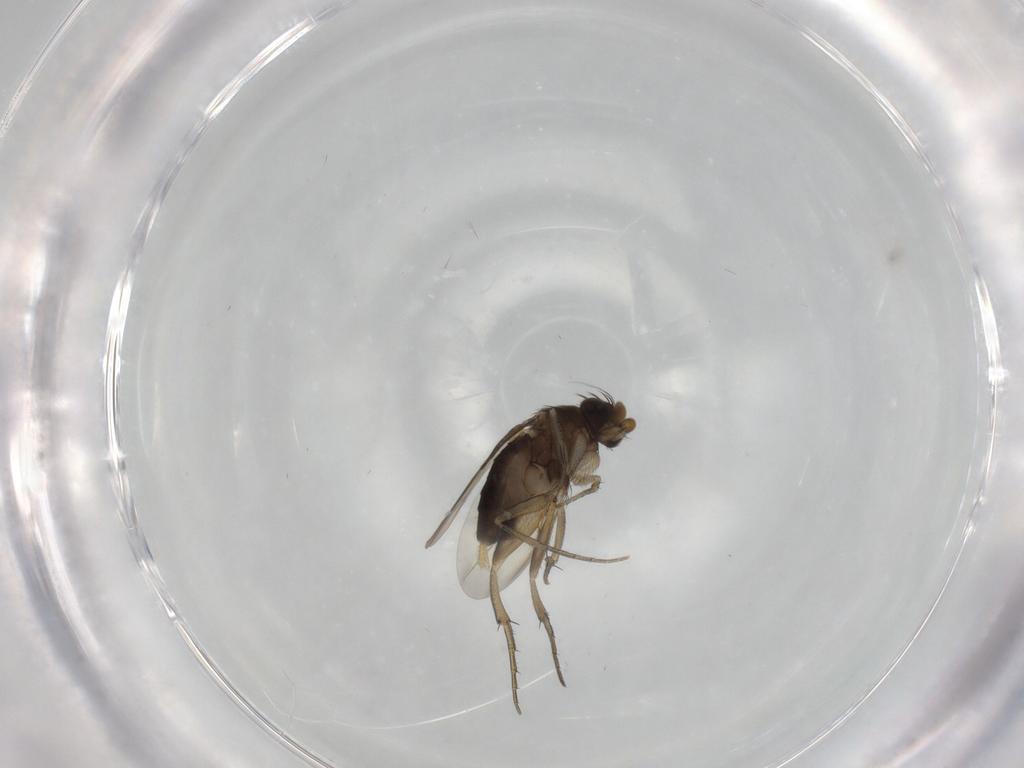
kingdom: Animalia
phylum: Arthropoda
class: Insecta
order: Diptera
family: Phoridae
